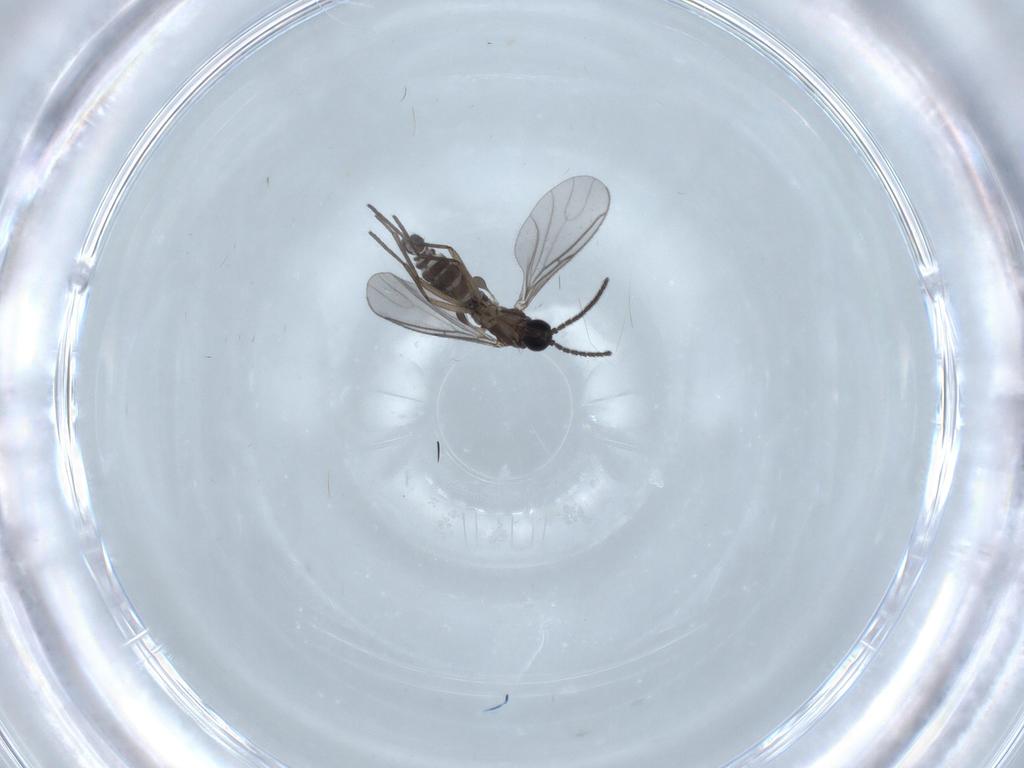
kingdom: Animalia
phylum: Arthropoda
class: Insecta
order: Diptera
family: Sciaridae
